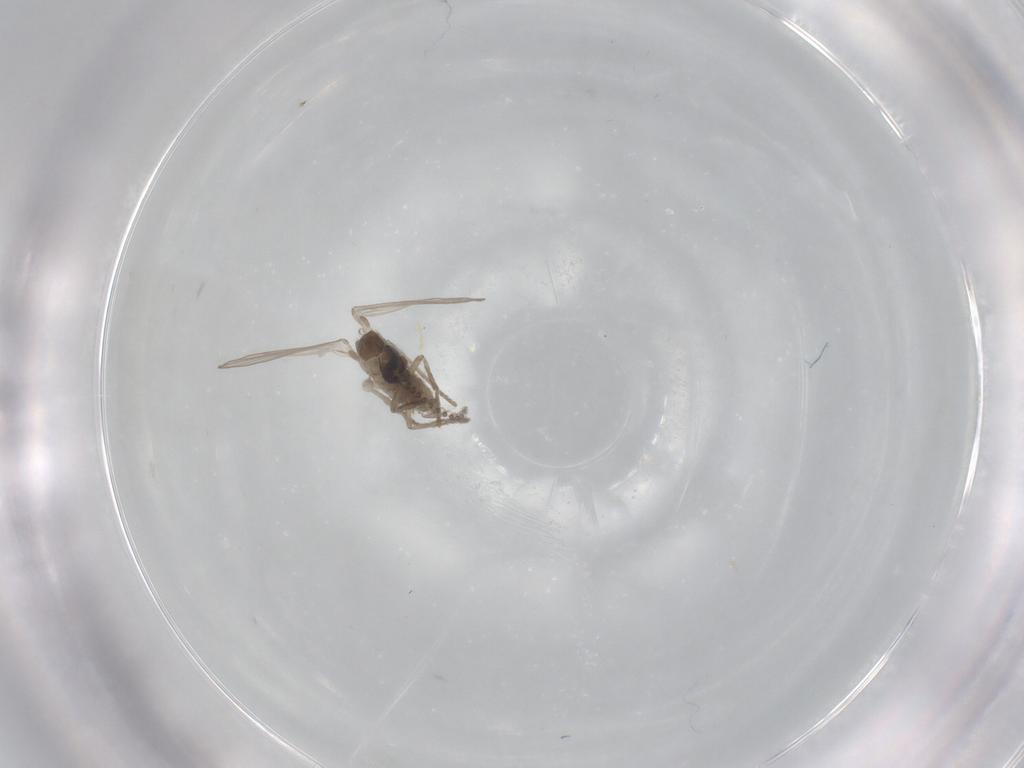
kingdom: Animalia
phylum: Arthropoda
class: Insecta
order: Diptera
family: Psychodidae
